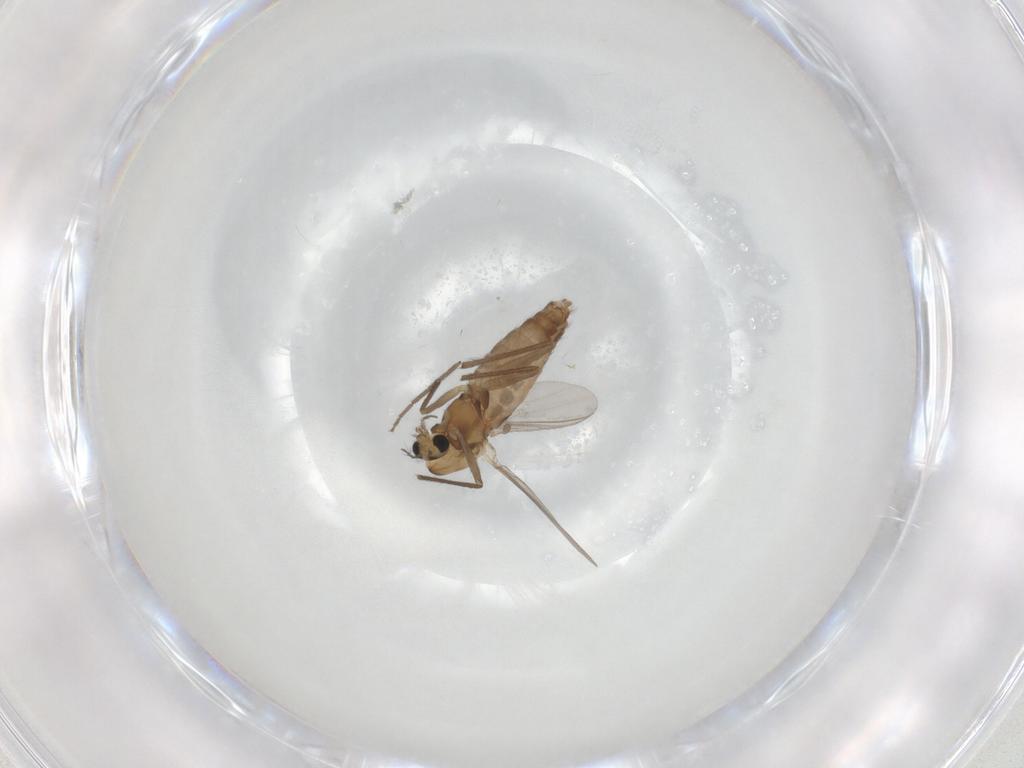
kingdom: Animalia
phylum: Arthropoda
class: Insecta
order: Diptera
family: Chironomidae
